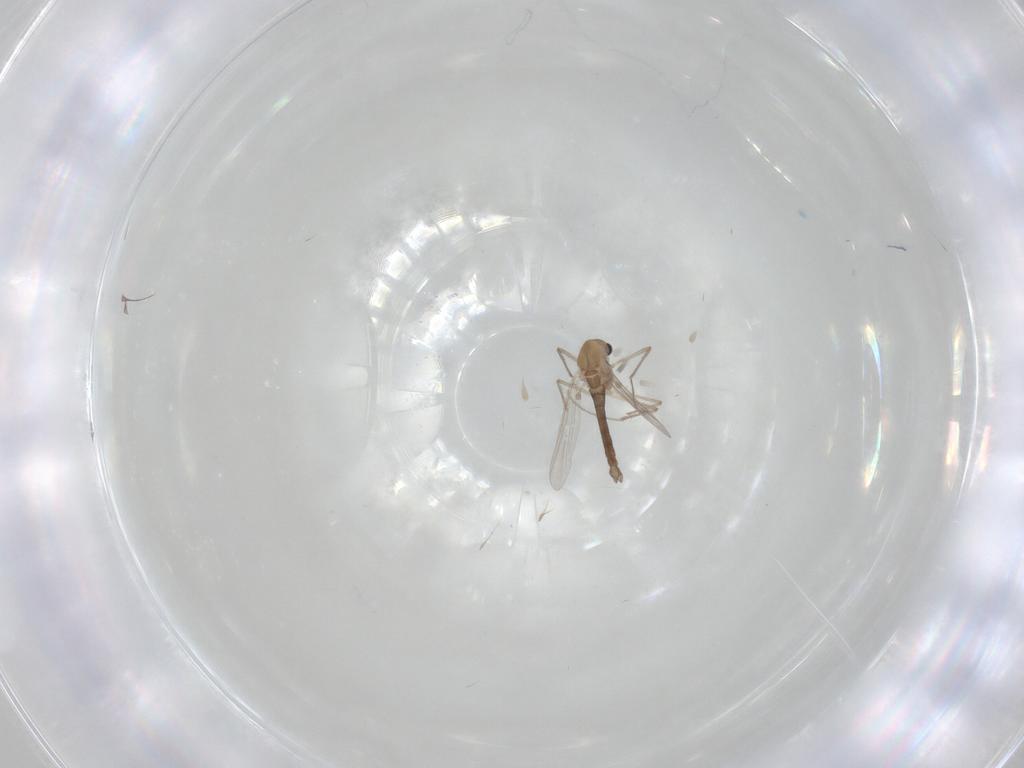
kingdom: Animalia
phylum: Arthropoda
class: Insecta
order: Diptera
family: Chironomidae
